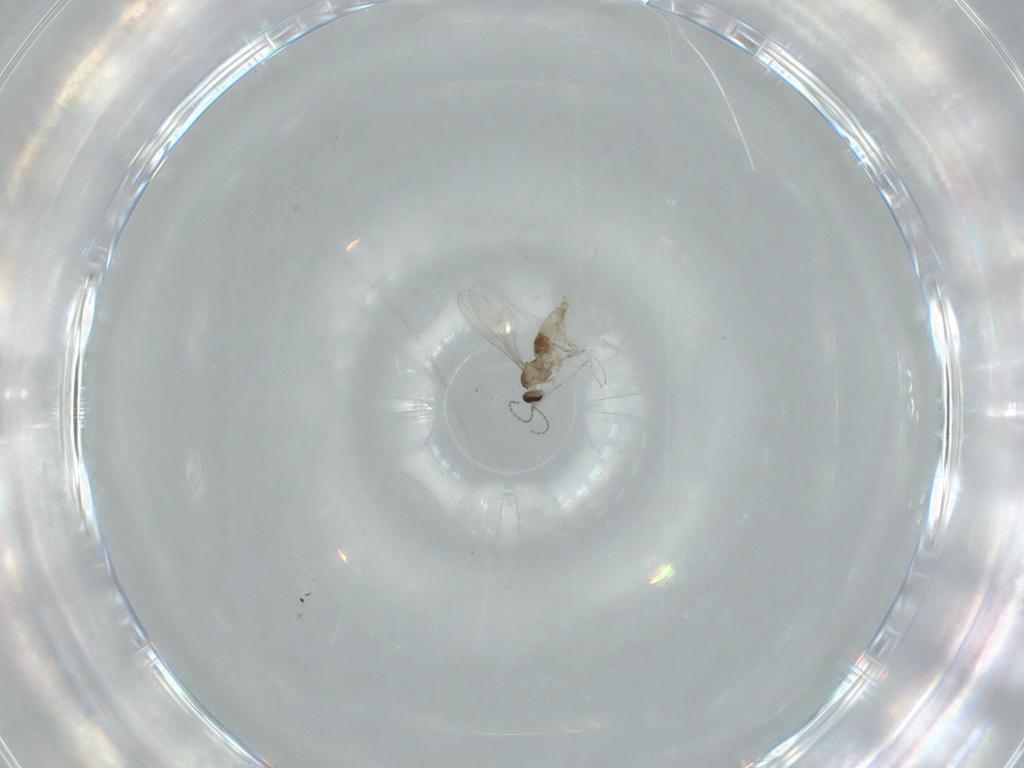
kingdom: Animalia
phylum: Arthropoda
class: Insecta
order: Diptera
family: Cecidomyiidae
